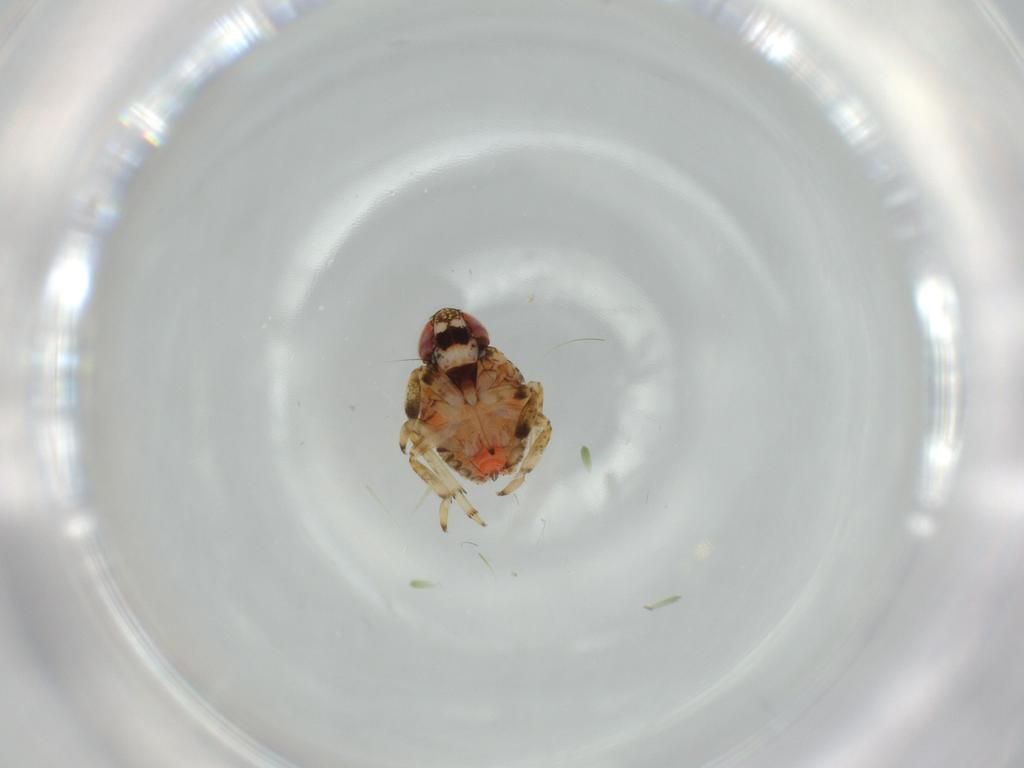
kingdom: Animalia
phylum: Arthropoda
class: Insecta
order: Hemiptera
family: Issidae
